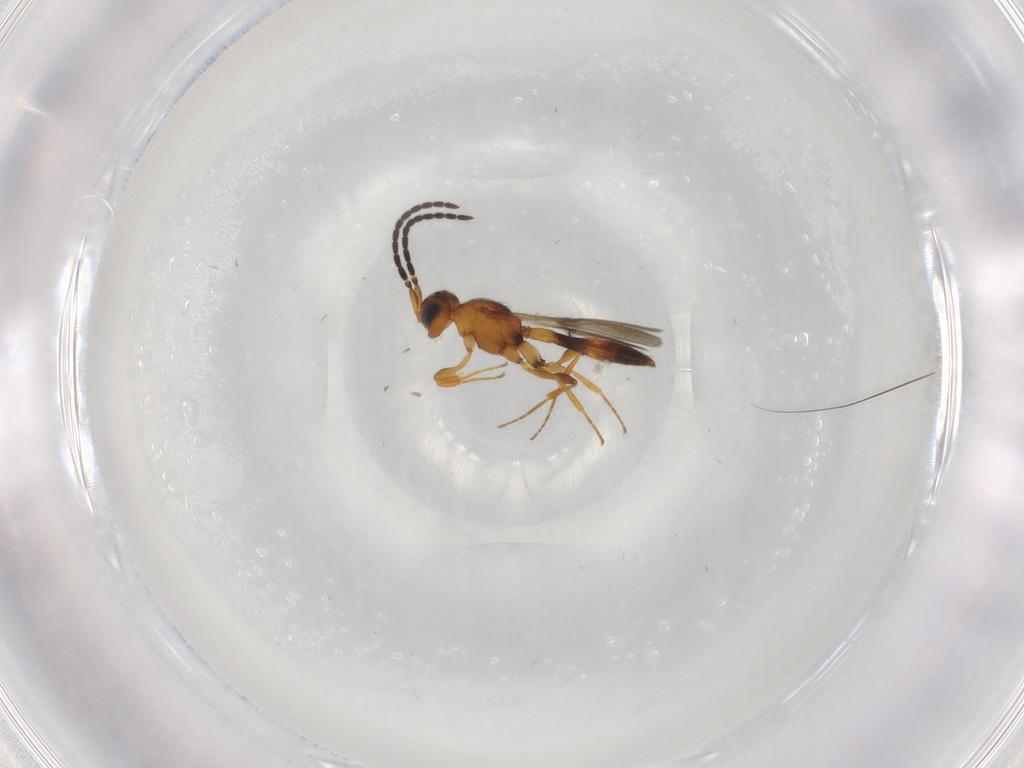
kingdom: Animalia
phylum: Arthropoda
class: Insecta
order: Hymenoptera
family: Scelionidae
